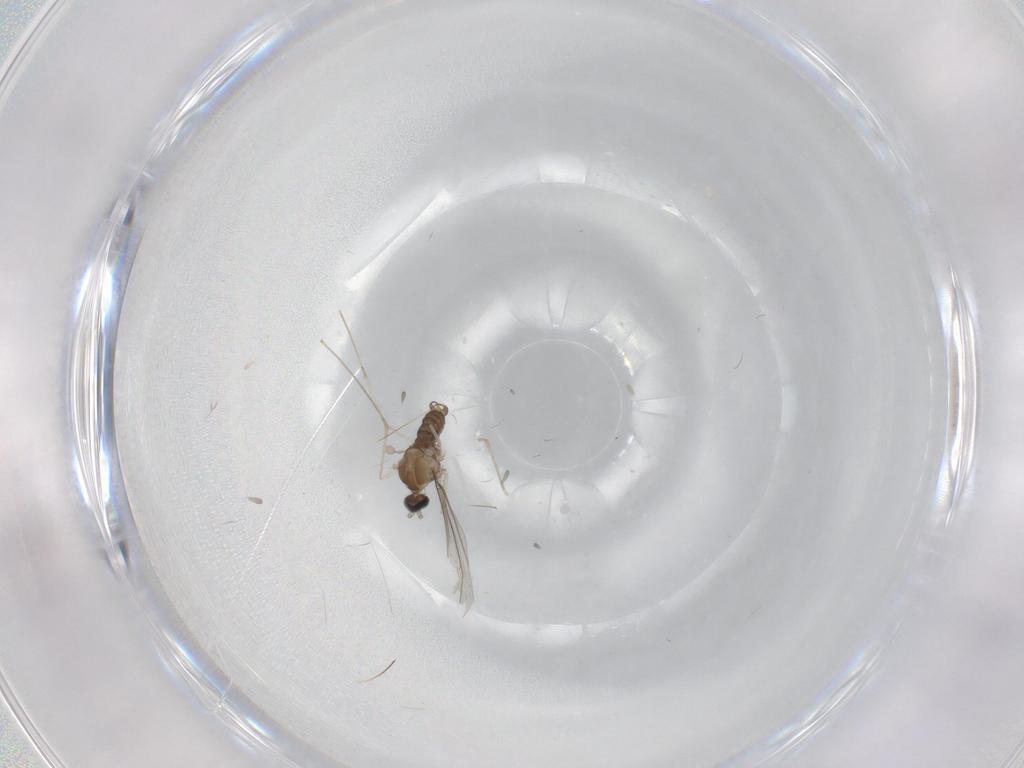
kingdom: Animalia
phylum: Arthropoda
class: Insecta
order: Diptera
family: Cecidomyiidae
